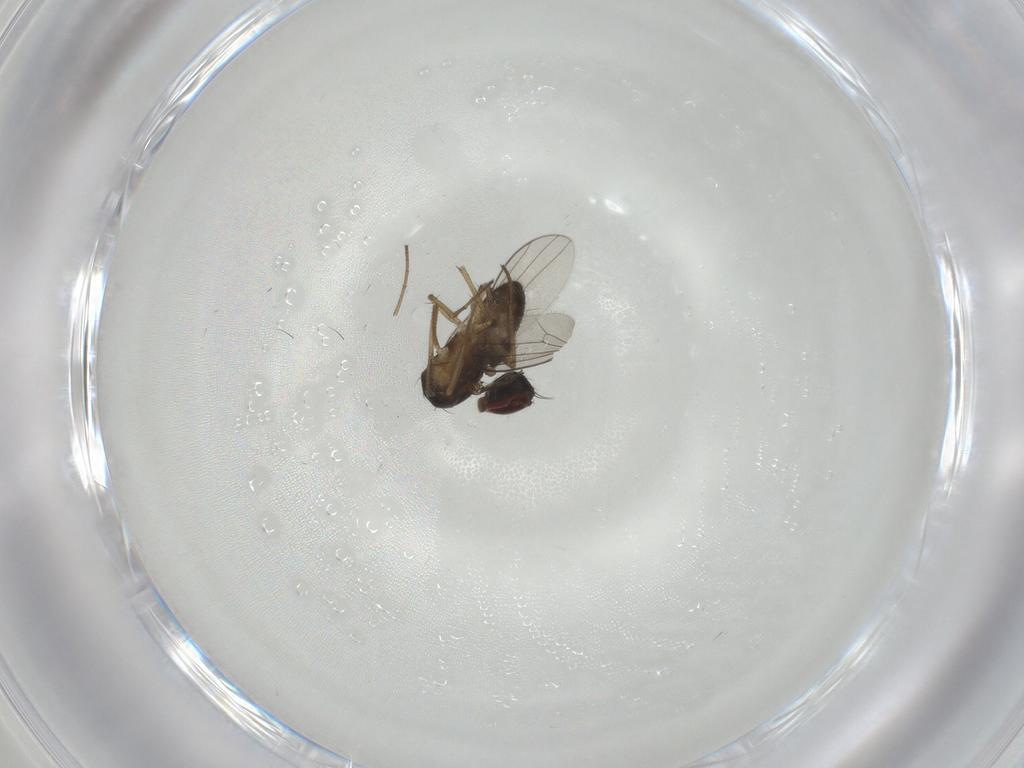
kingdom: Animalia
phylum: Arthropoda
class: Insecta
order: Diptera
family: Dolichopodidae
